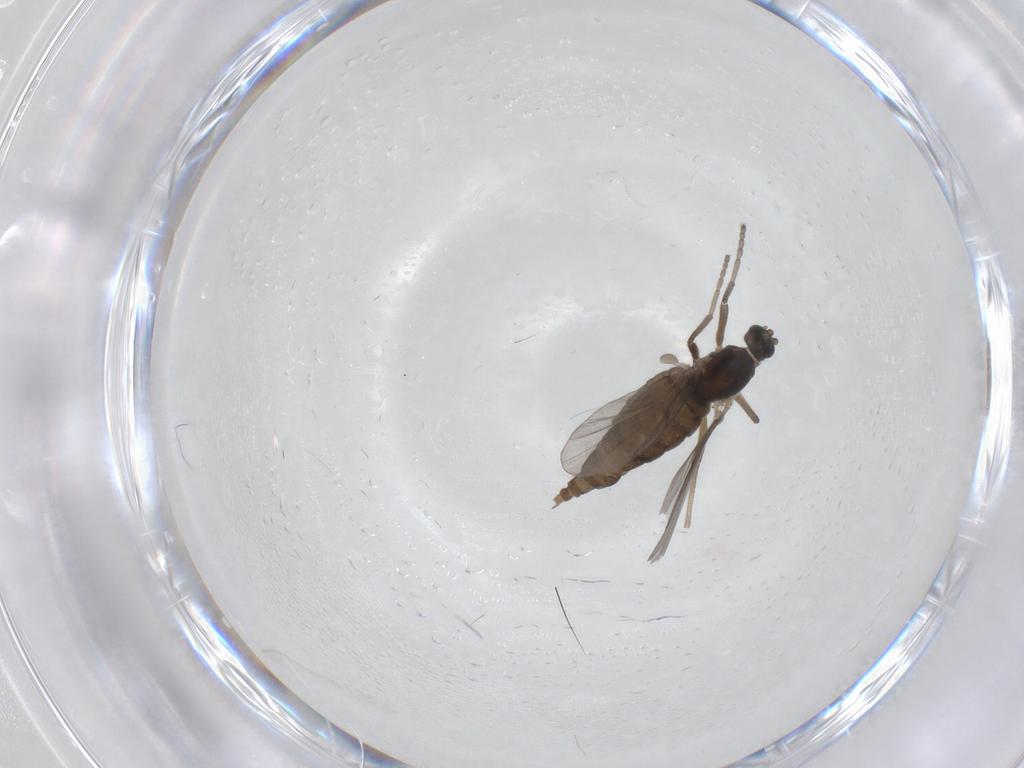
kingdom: Animalia
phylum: Arthropoda
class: Insecta
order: Diptera
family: Cecidomyiidae
